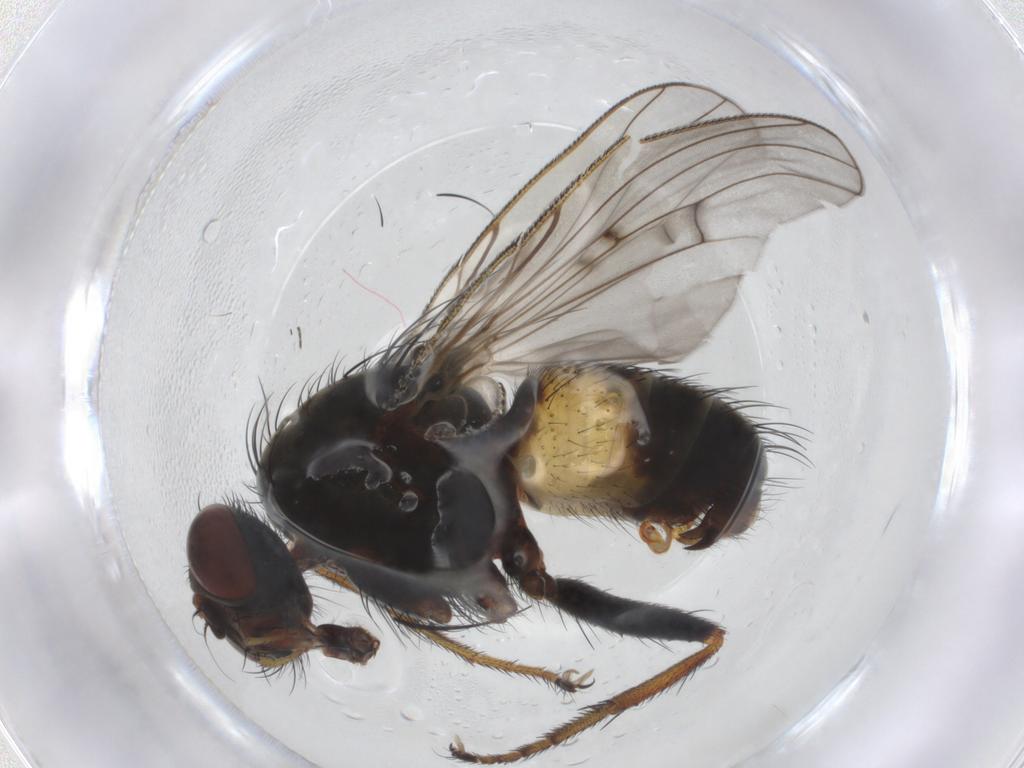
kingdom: Animalia
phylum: Arthropoda
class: Insecta
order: Diptera
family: Muscidae
